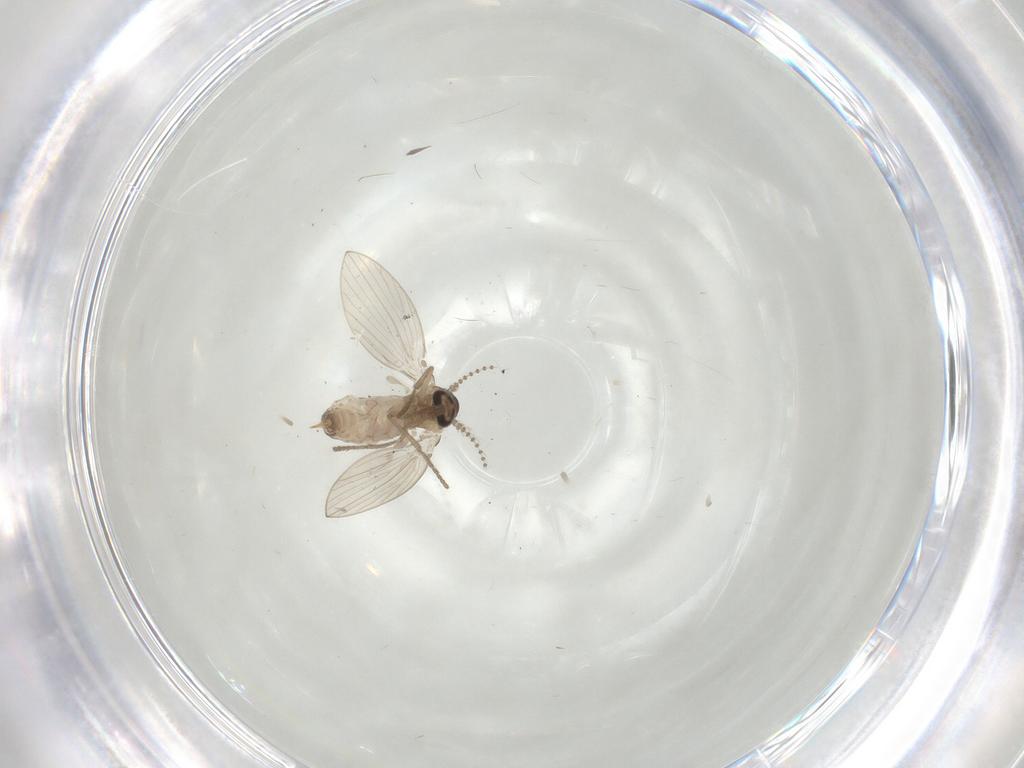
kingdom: Animalia
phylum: Arthropoda
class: Insecta
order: Diptera
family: Psychodidae
